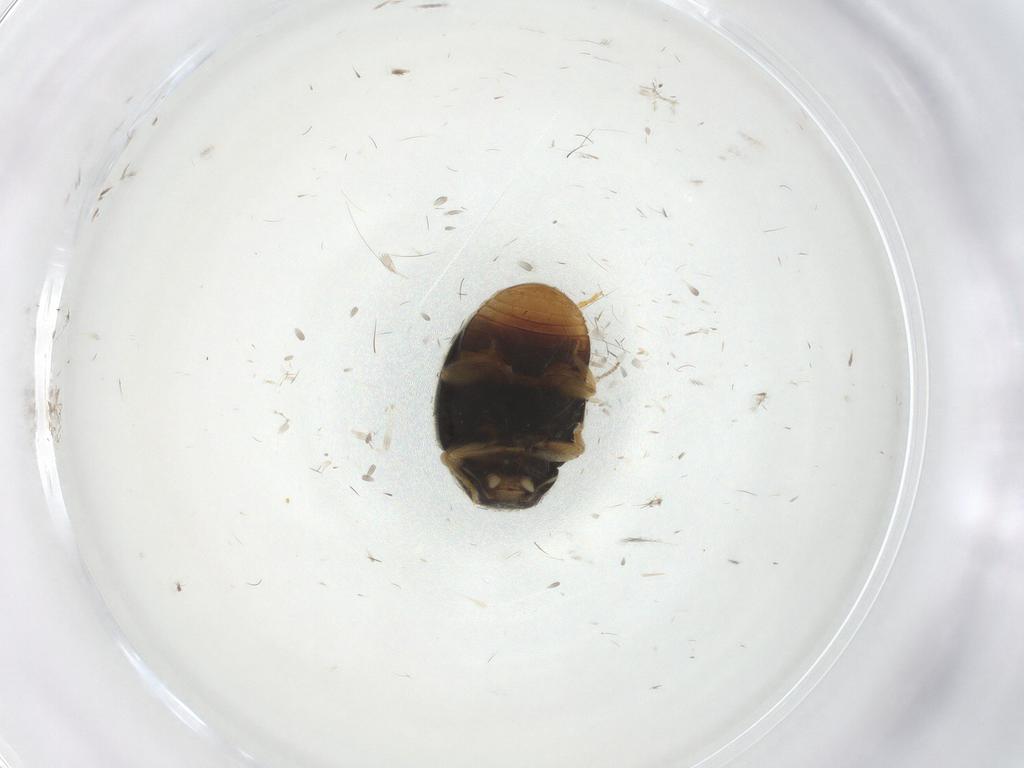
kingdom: Animalia
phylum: Arthropoda
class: Insecta
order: Coleoptera
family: Coccinellidae
